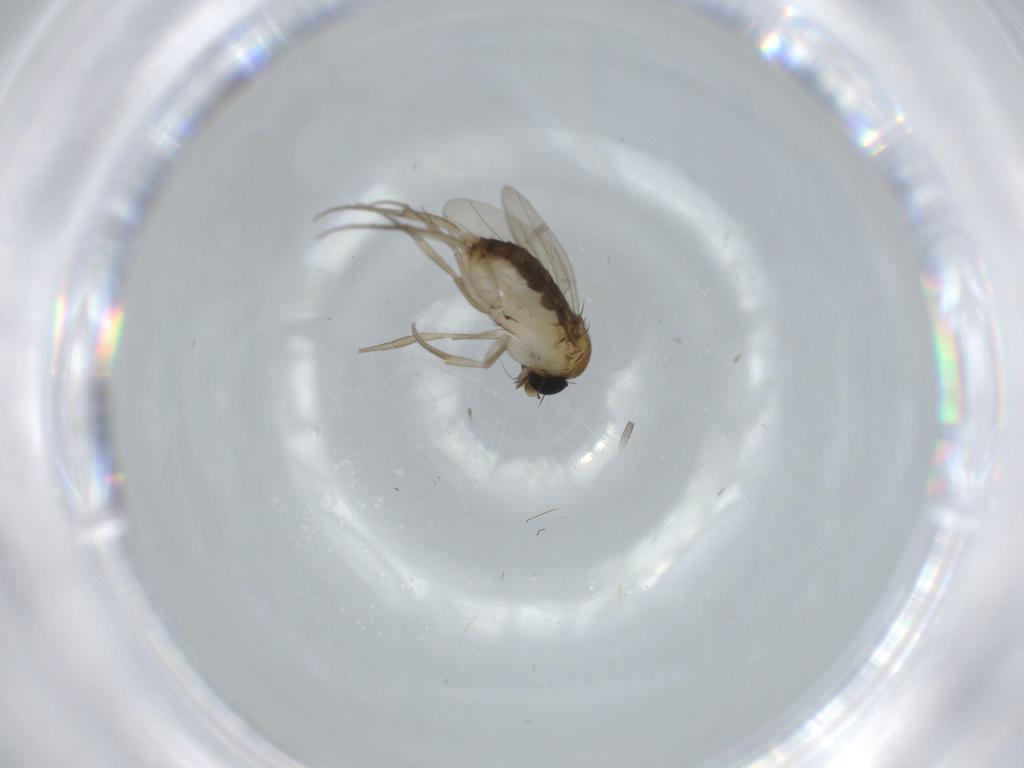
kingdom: Animalia
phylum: Arthropoda
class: Insecta
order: Diptera
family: Phoridae
